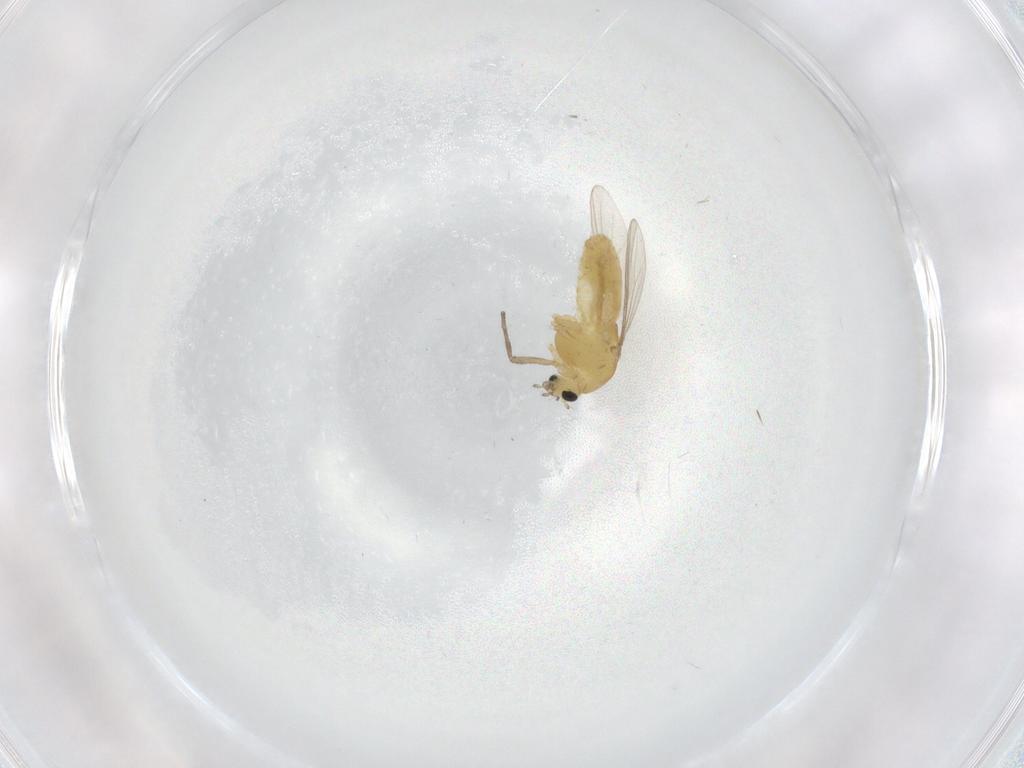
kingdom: Animalia
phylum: Arthropoda
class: Insecta
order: Diptera
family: Chironomidae
